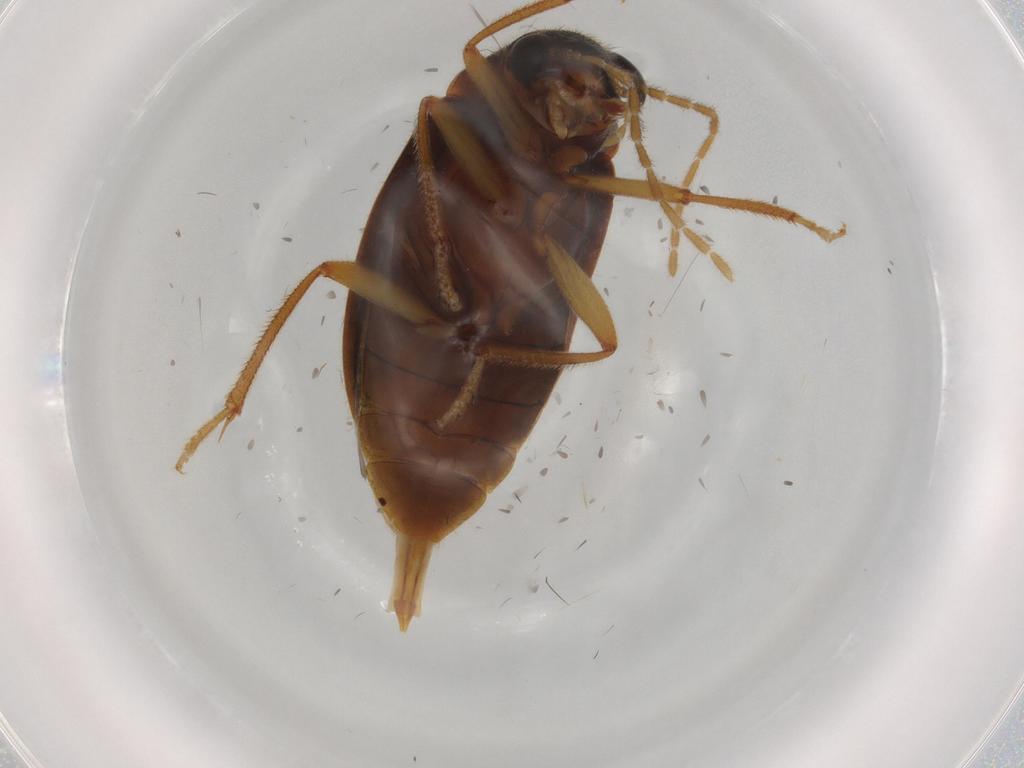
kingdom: Animalia
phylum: Arthropoda
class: Insecta
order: Coleoptera
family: Ptilodactylidae
